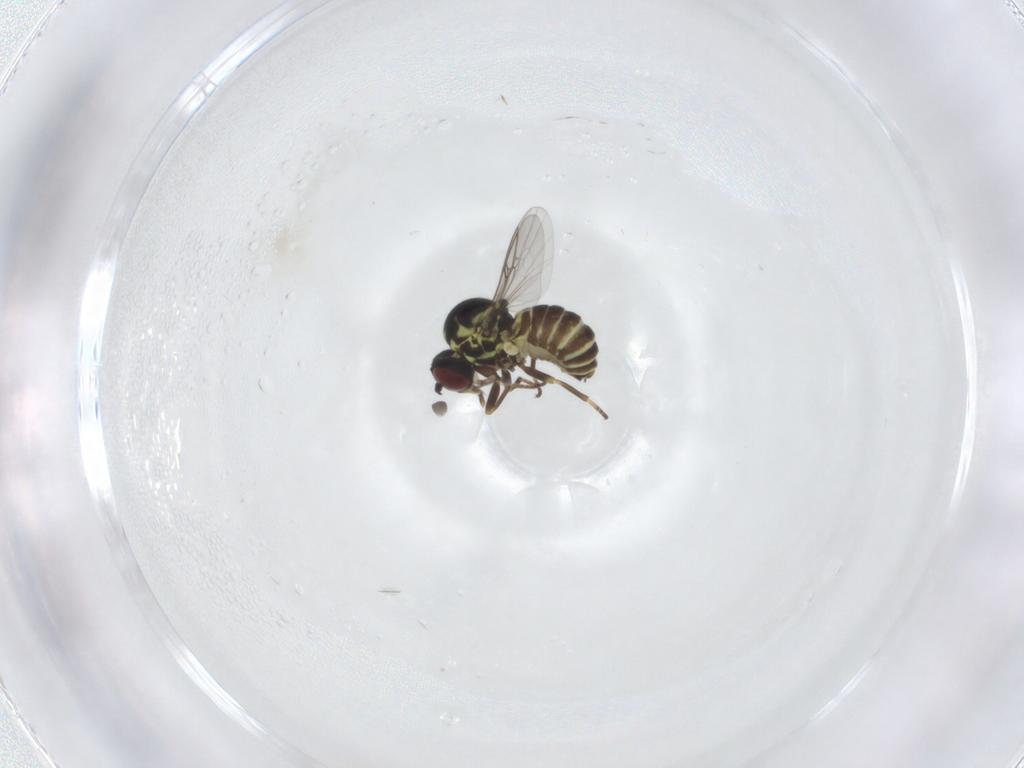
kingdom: Animalia
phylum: Arthropoda
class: Insecta
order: Diptera
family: Mythicomyiidae
